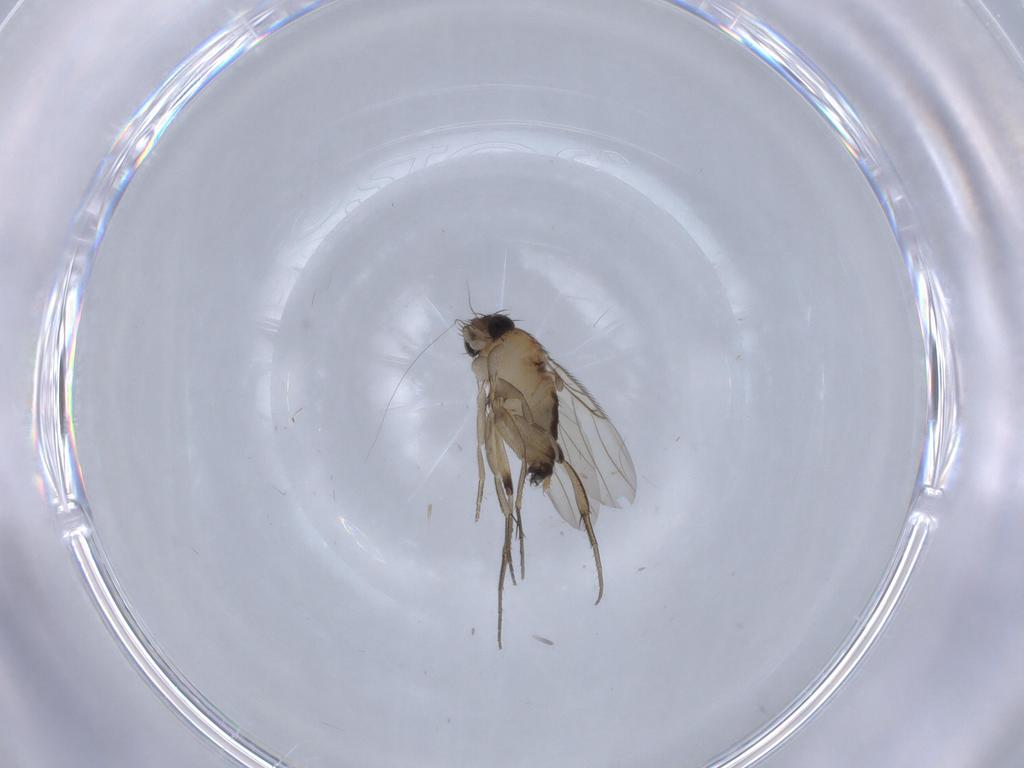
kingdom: Animalia
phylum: Arthropoda
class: Insecta
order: Diptera
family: Phoridae
